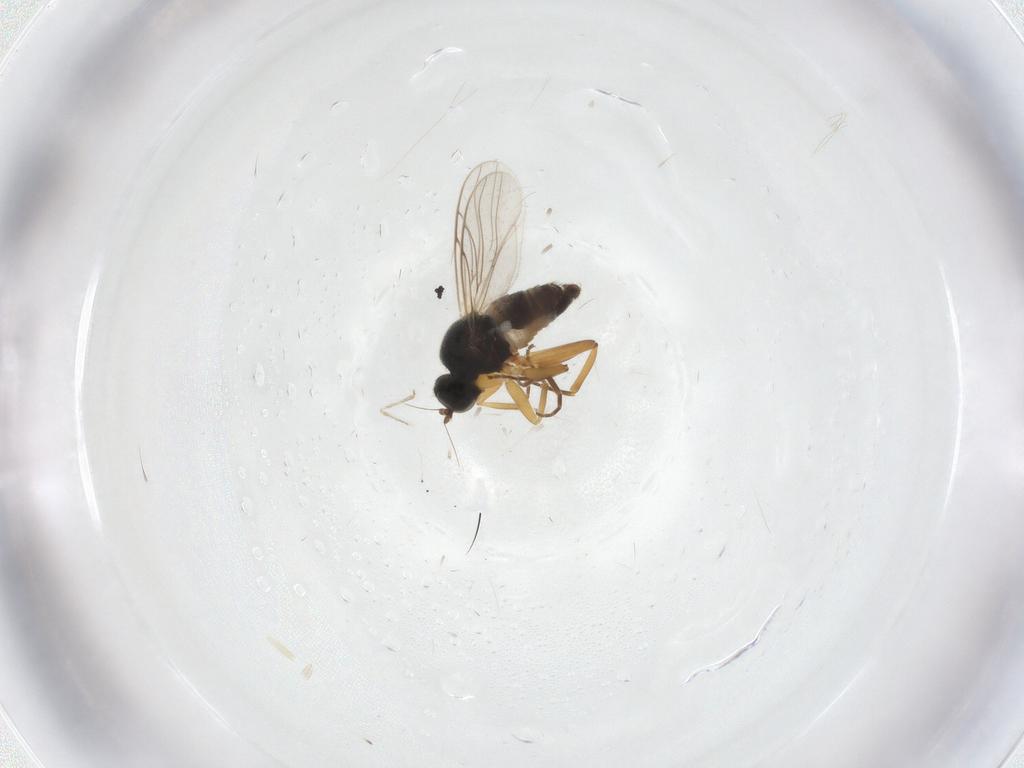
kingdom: Animalia
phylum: Arthropoda
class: Insecta
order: Diptera
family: Hybotidae
